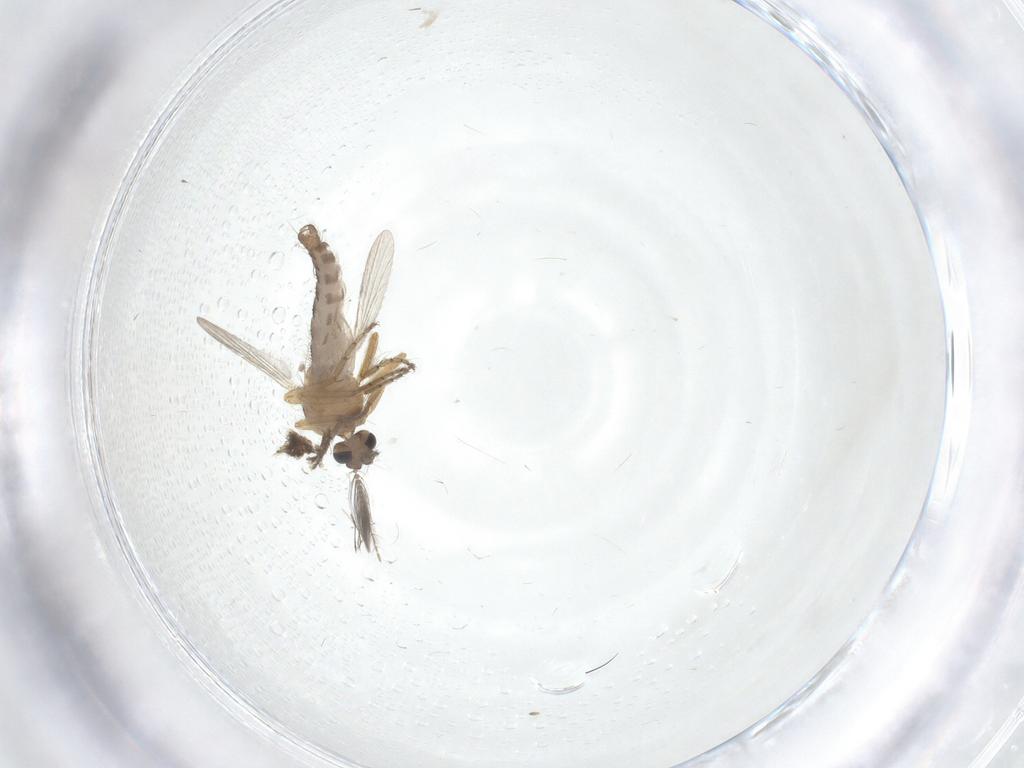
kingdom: Animalia
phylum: Arthropoda
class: Insecta
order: Diptera
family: Ceratopogonidae
